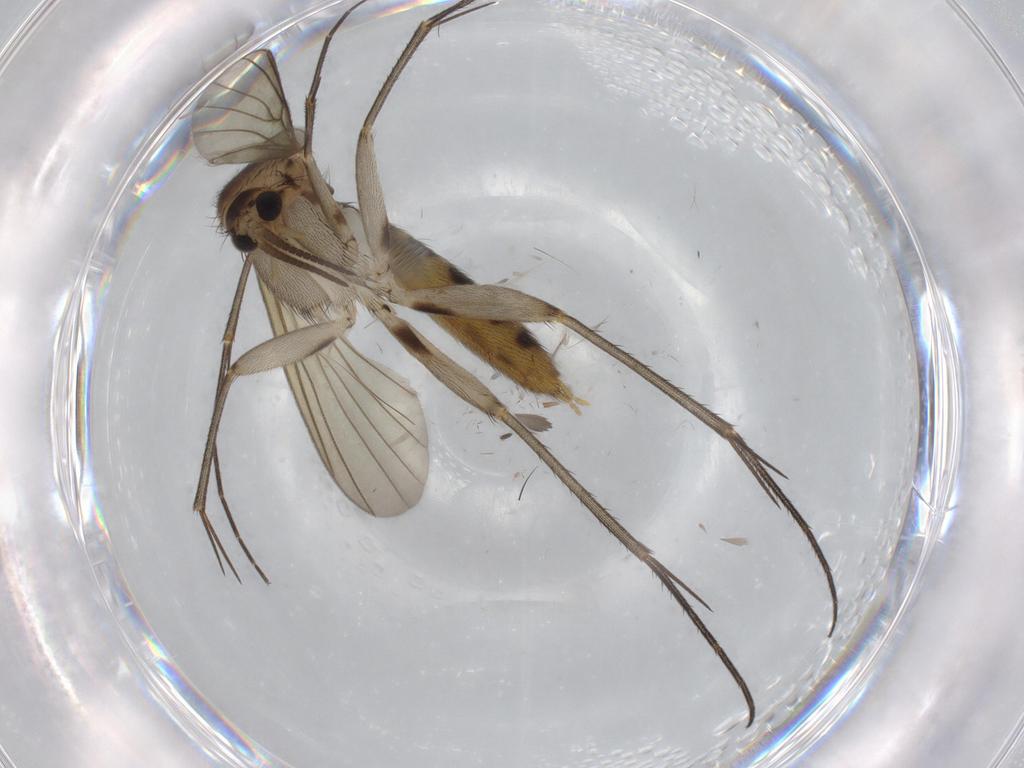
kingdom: Animalia
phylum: Arthropoda
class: Insecta
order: Diptera
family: Mycetophilidae
